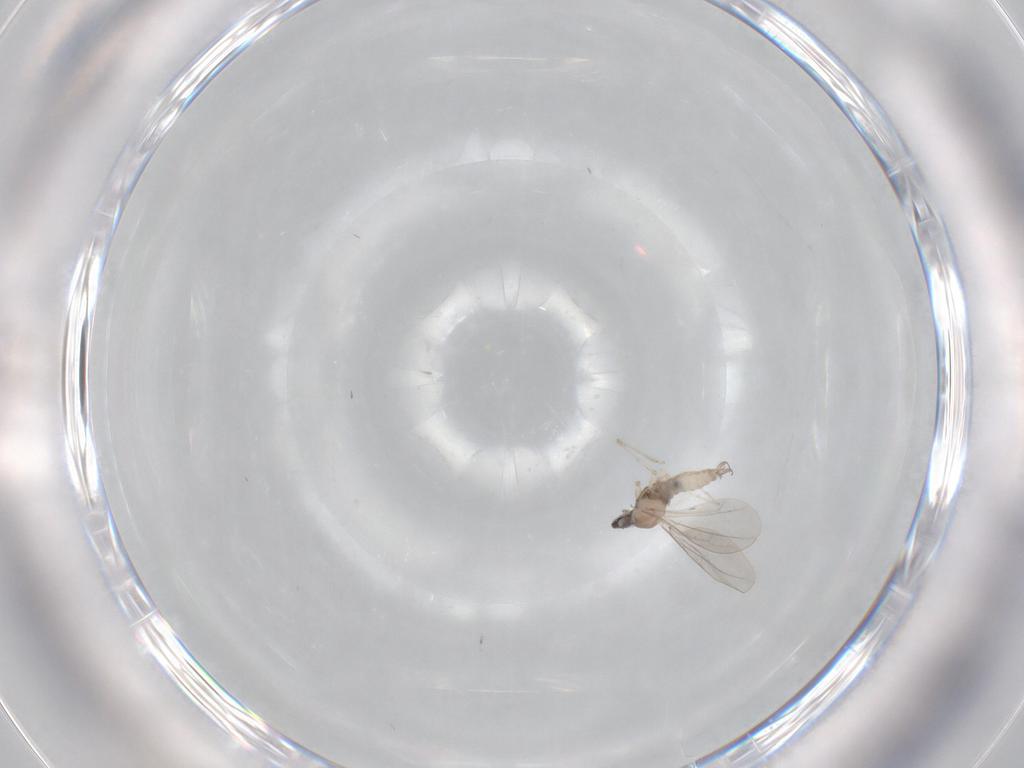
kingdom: Animalia
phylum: Arthropoda
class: Insecta
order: Diptera
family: Cecidomyiidae
